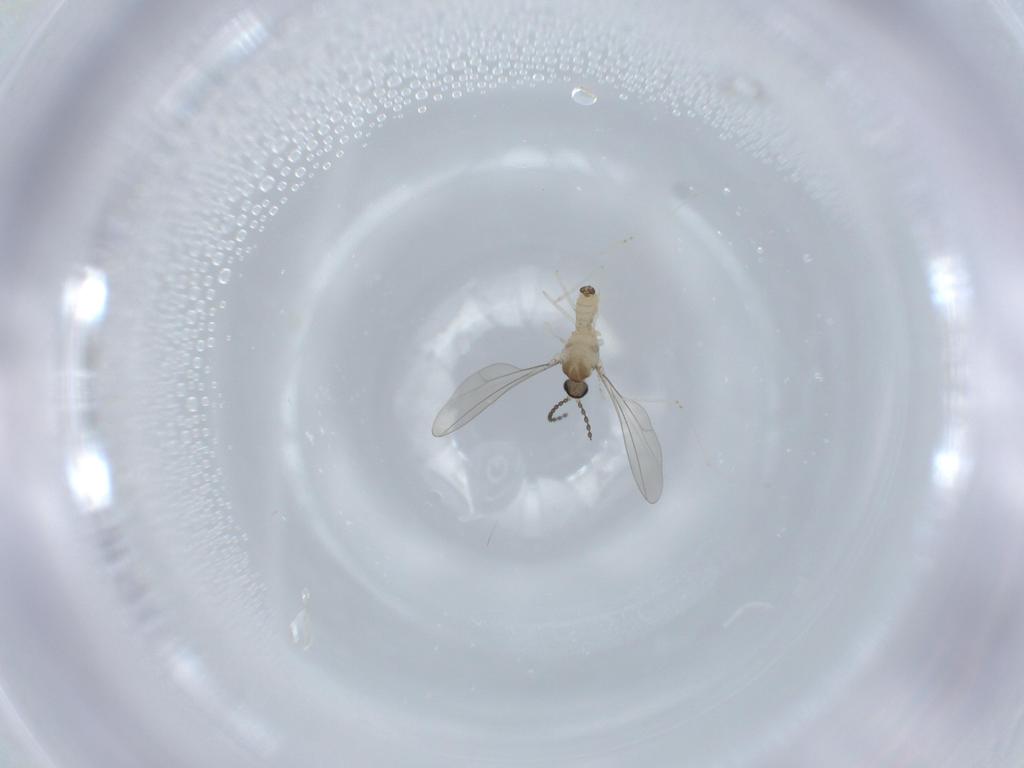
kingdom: Animalia
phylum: Arthropoda
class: Insecta
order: Diptera
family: Cecidomyiidae
